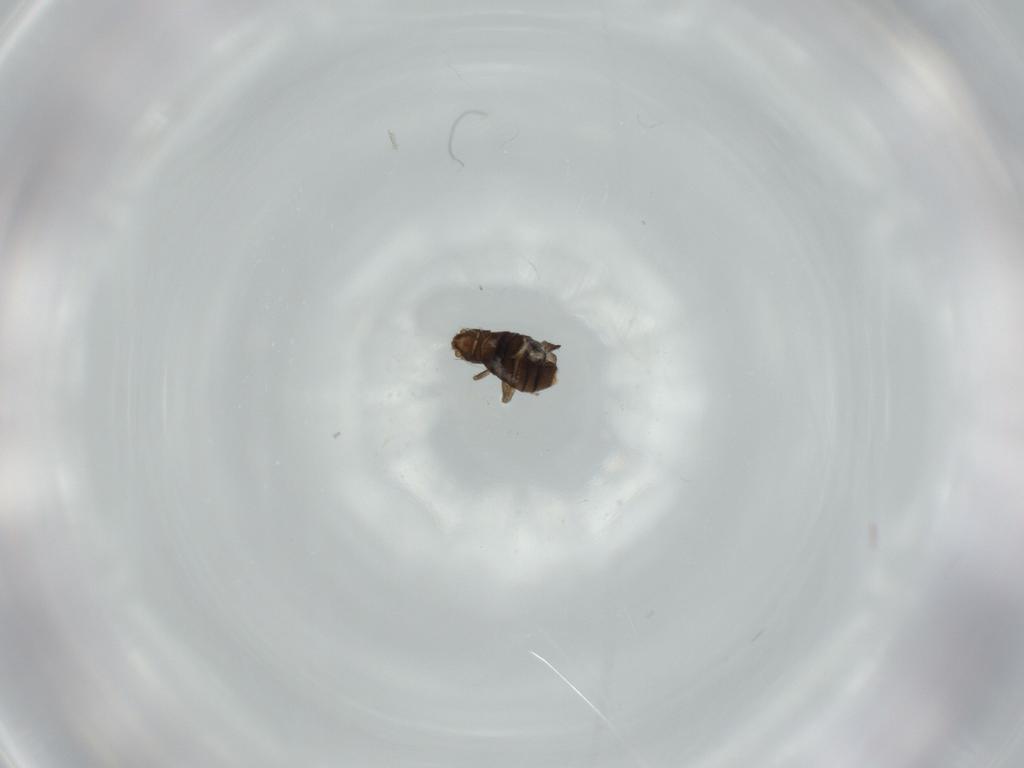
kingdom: Animalia
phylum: Arthropoda
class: Insecta
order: Diptera
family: Phoridae
